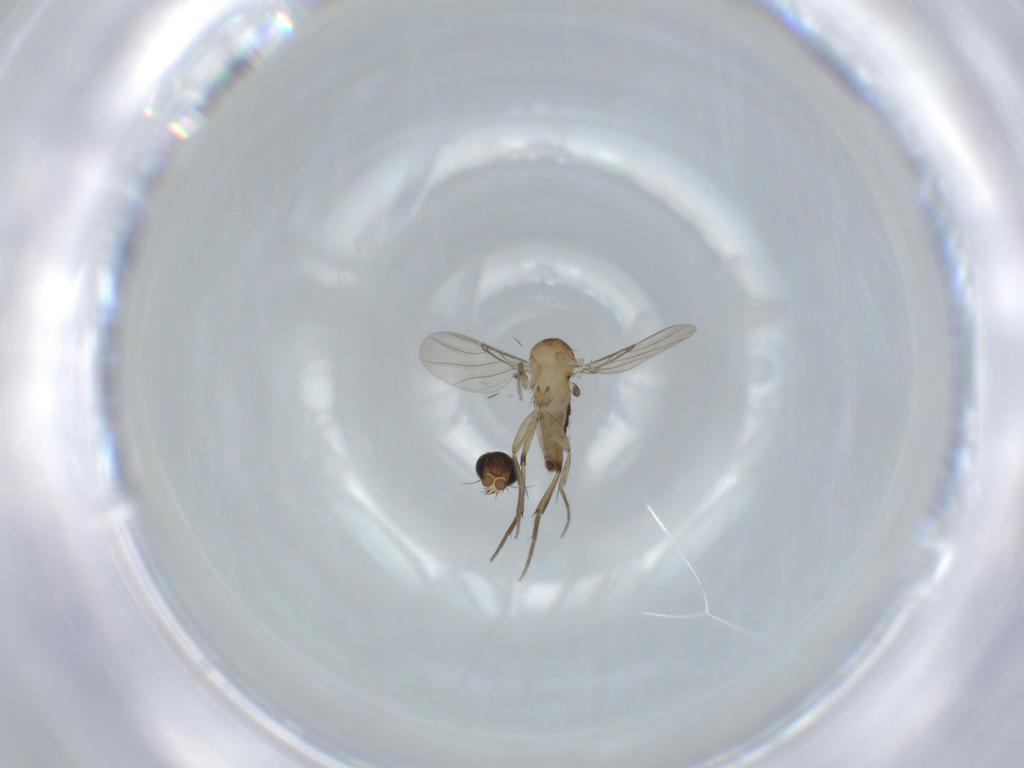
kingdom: Animalia
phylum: Arthropoda
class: Insecta
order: Diptera
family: Phoridae
